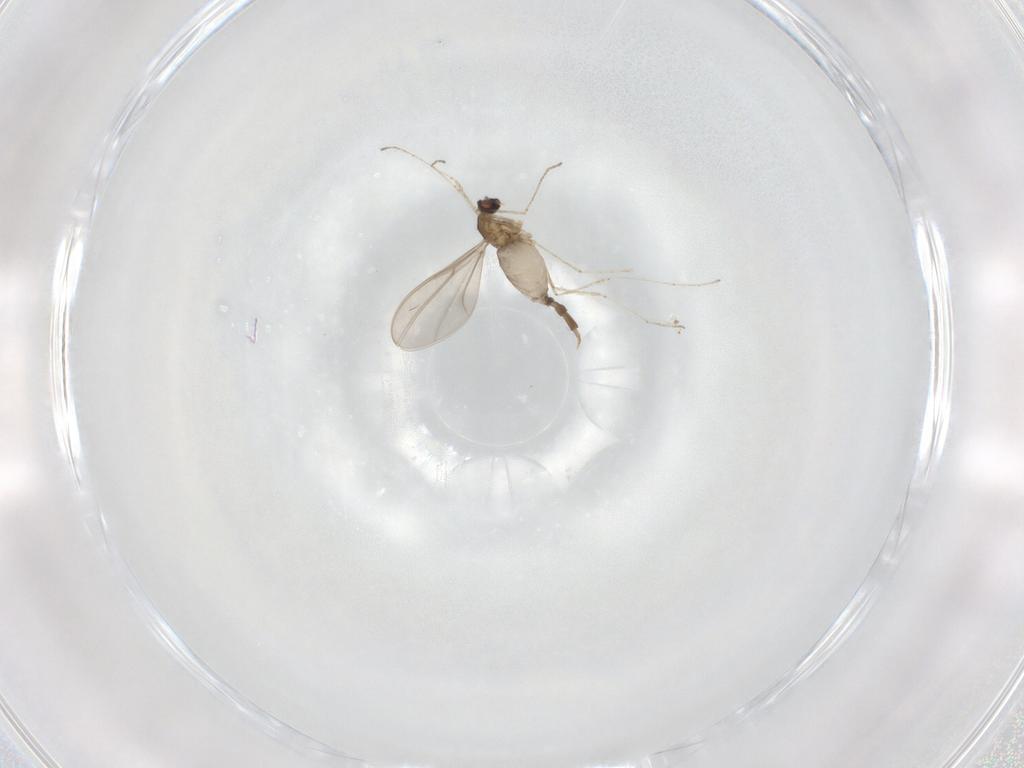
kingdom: Animalia
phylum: Arthropoda
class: Insecta
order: Diptera
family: Cecidomyiidae
